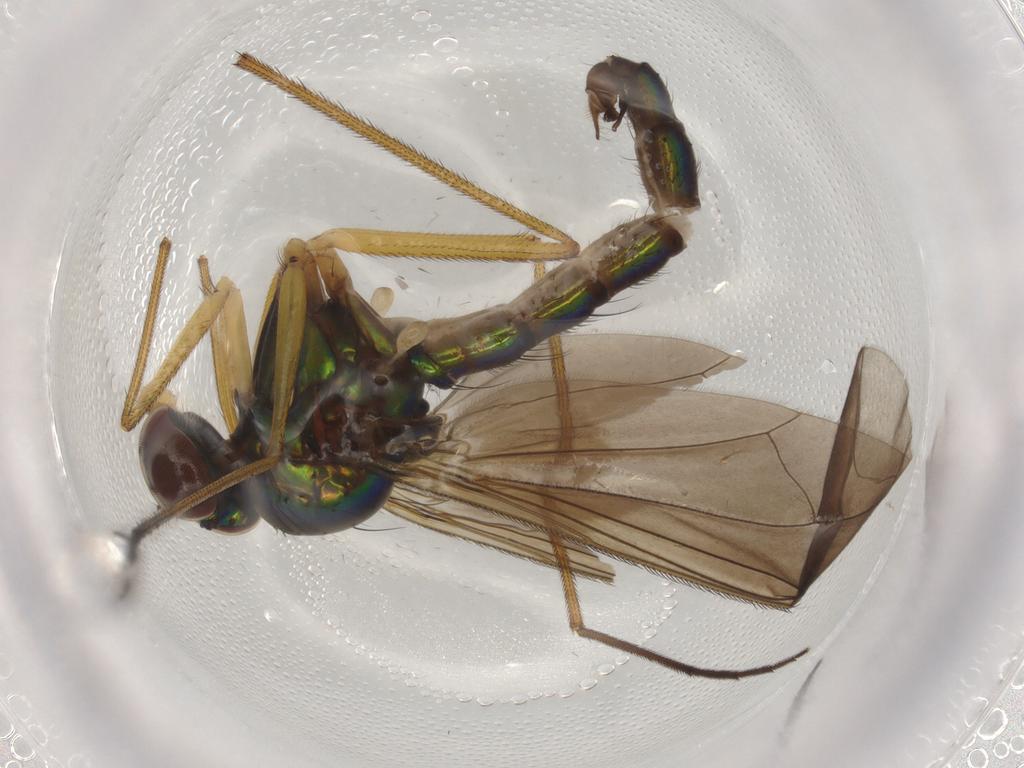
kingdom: Animalia
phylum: Arthropoda
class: Insecta
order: Diptera
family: Dolichopodidae
